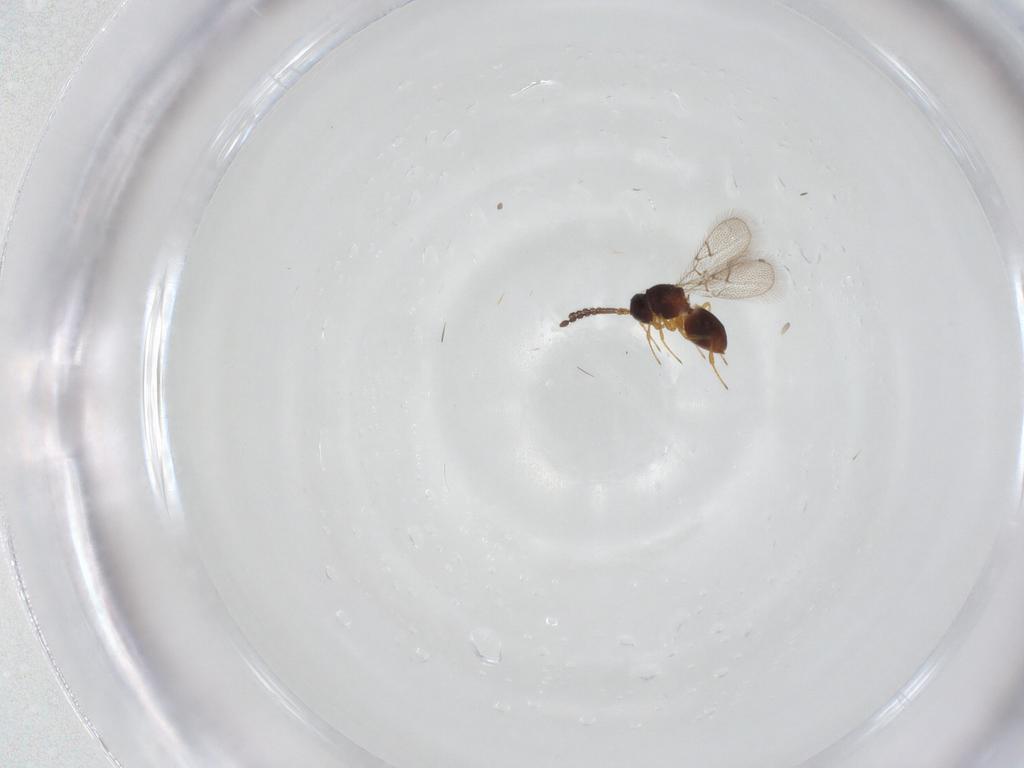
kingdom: Animalia
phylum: Arthropoda
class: Insecta
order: Hymenoptera
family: Figitidae
